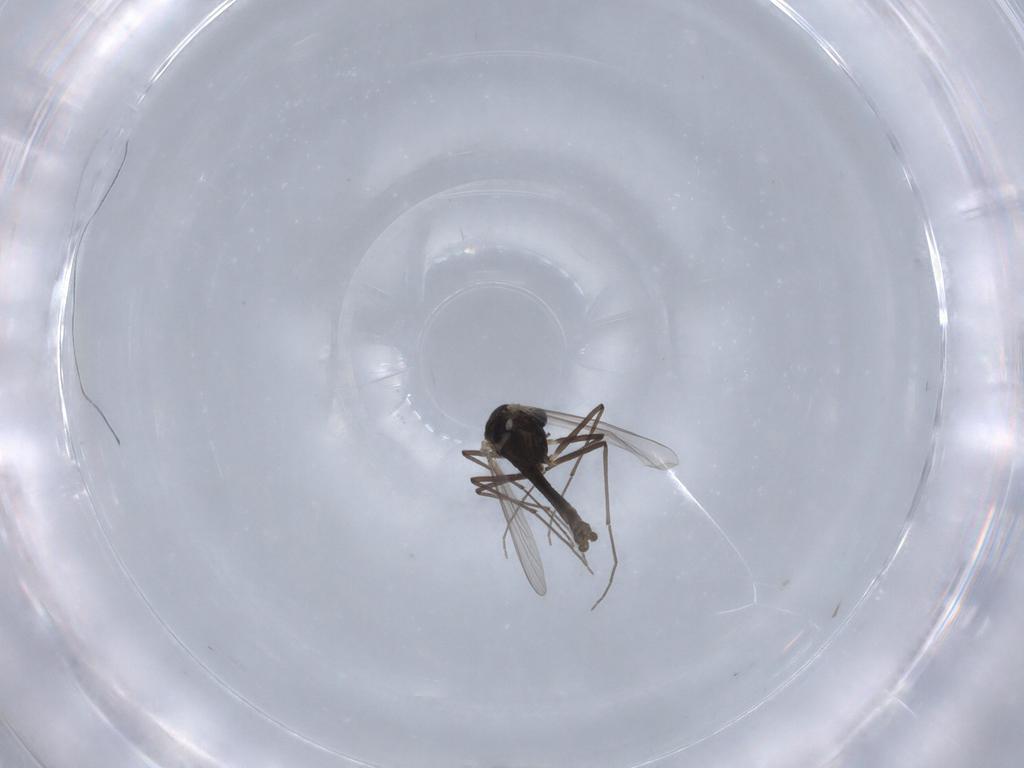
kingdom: Animalia
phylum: Arthropoda
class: Insecta
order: Diptera
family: Chironomidae
